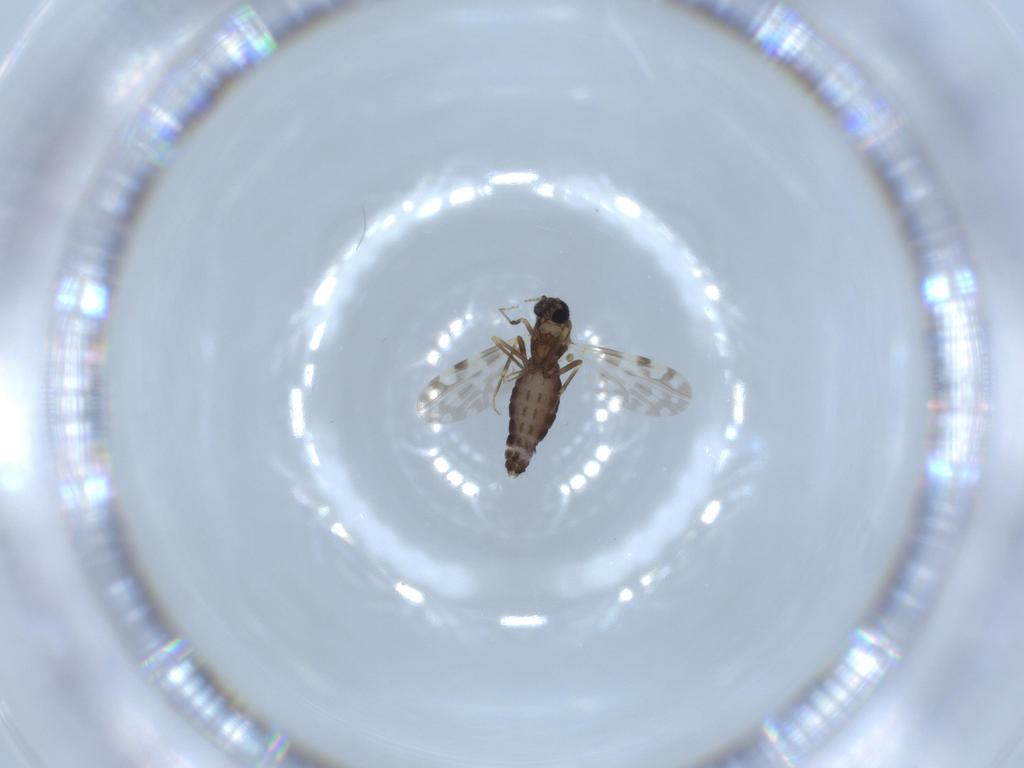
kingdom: Animalia
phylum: Arthropoda
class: Insecta
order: Diptera
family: Ceratopogonidae
